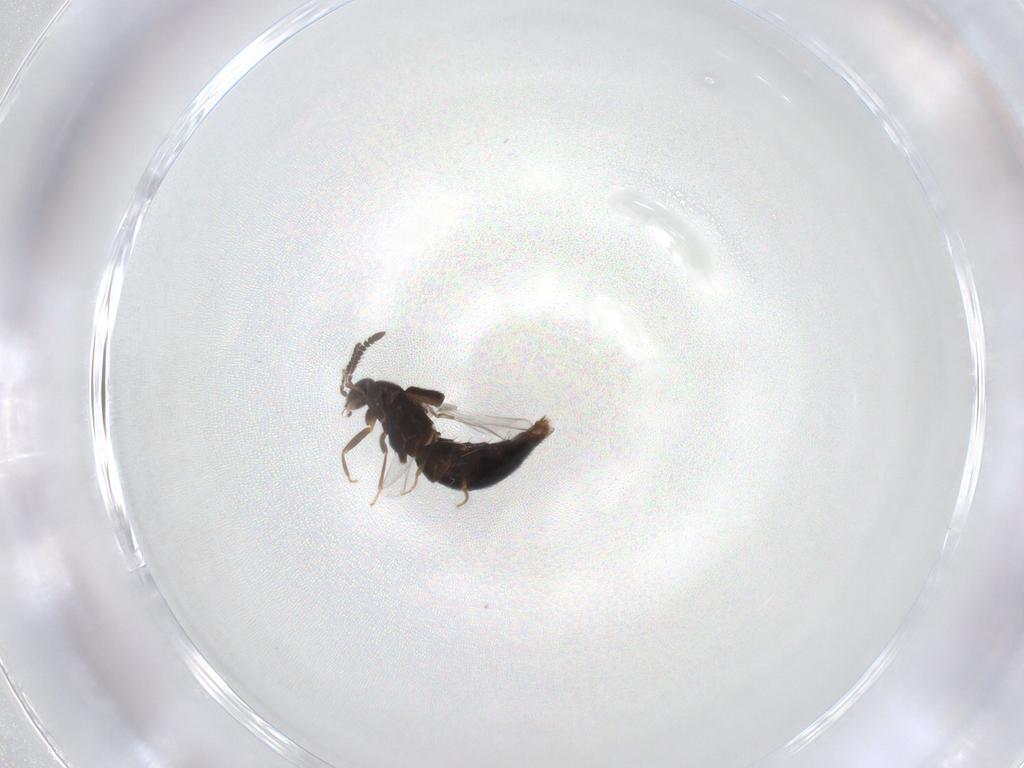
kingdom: Animalia
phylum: Arthropoda
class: Insecta
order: Coleoptera
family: Staphylinidae
